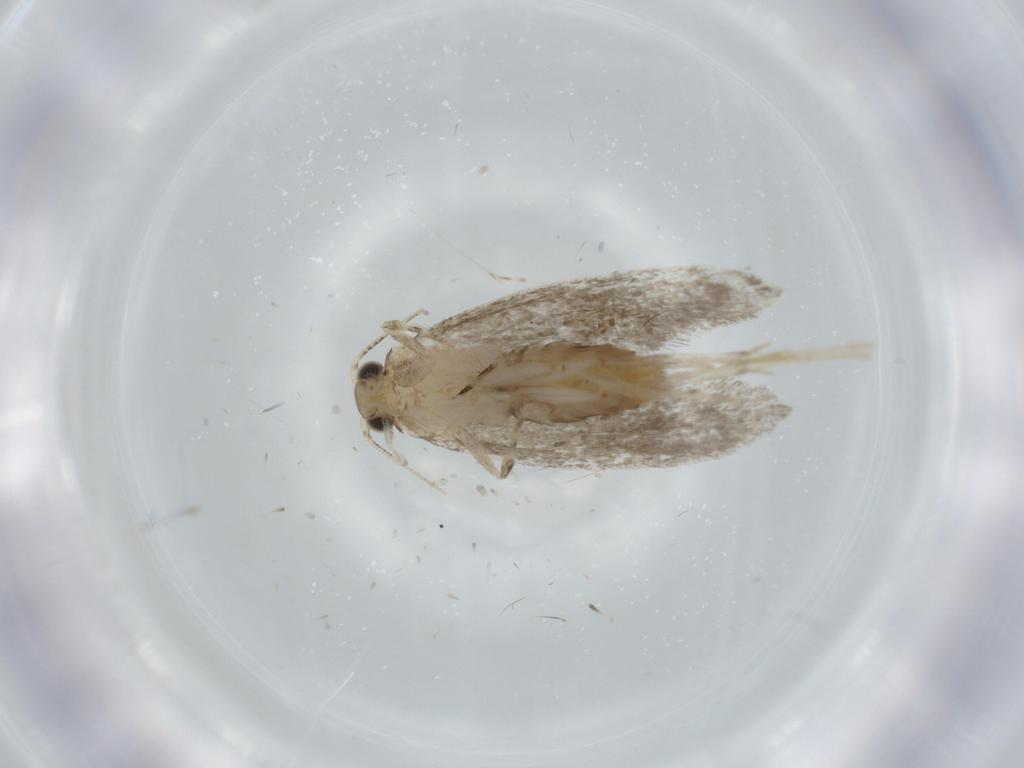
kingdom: Animalia
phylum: Arthropoda
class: Insecta
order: Lepidoptera
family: Tineidae
